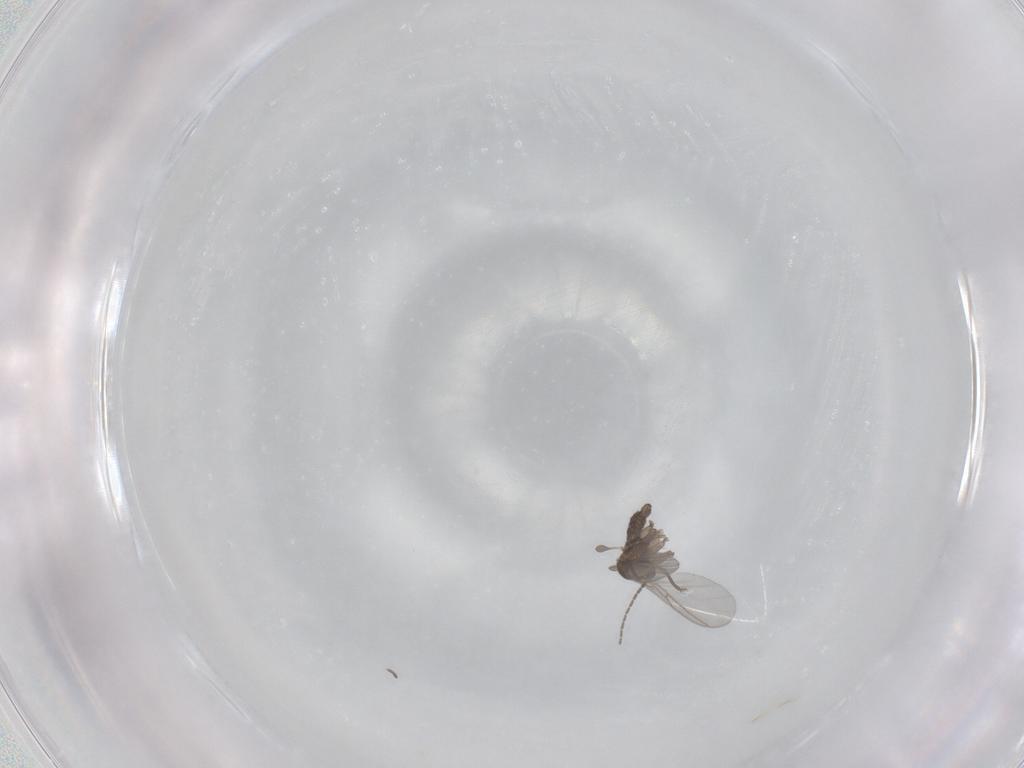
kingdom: Animalia
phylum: Arthropoda
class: Insecta
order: Diptera
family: Sciaridae
